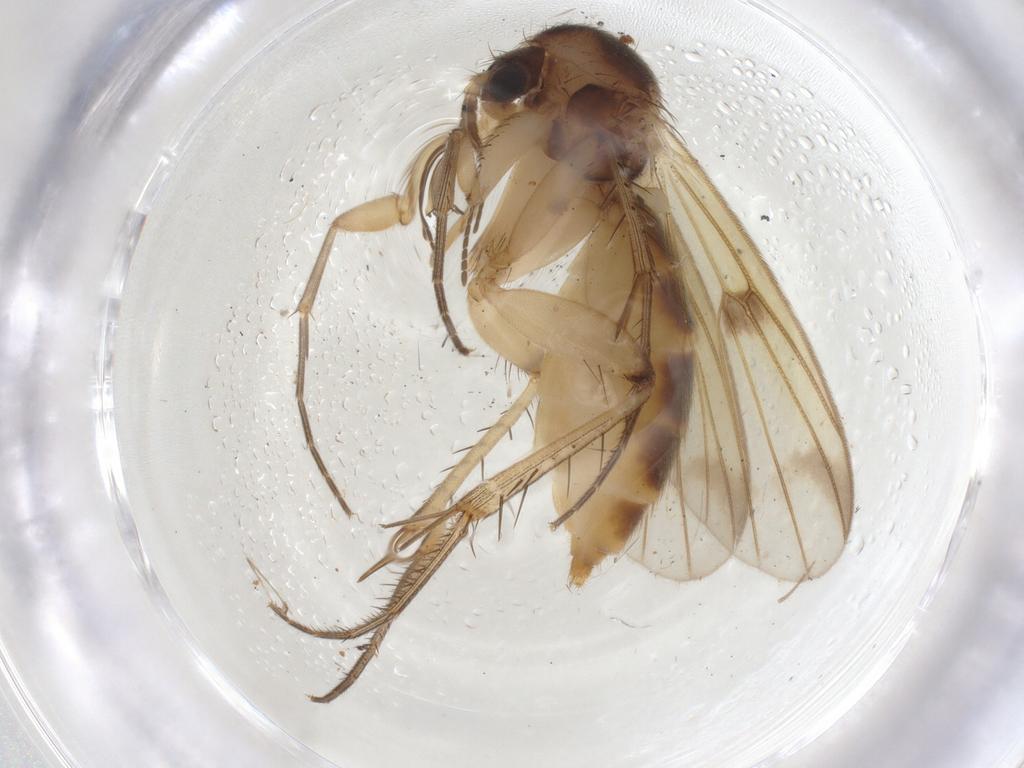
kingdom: Animalia
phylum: Arthropoda
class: Insecta
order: Diptera
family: Mycetophilidae
